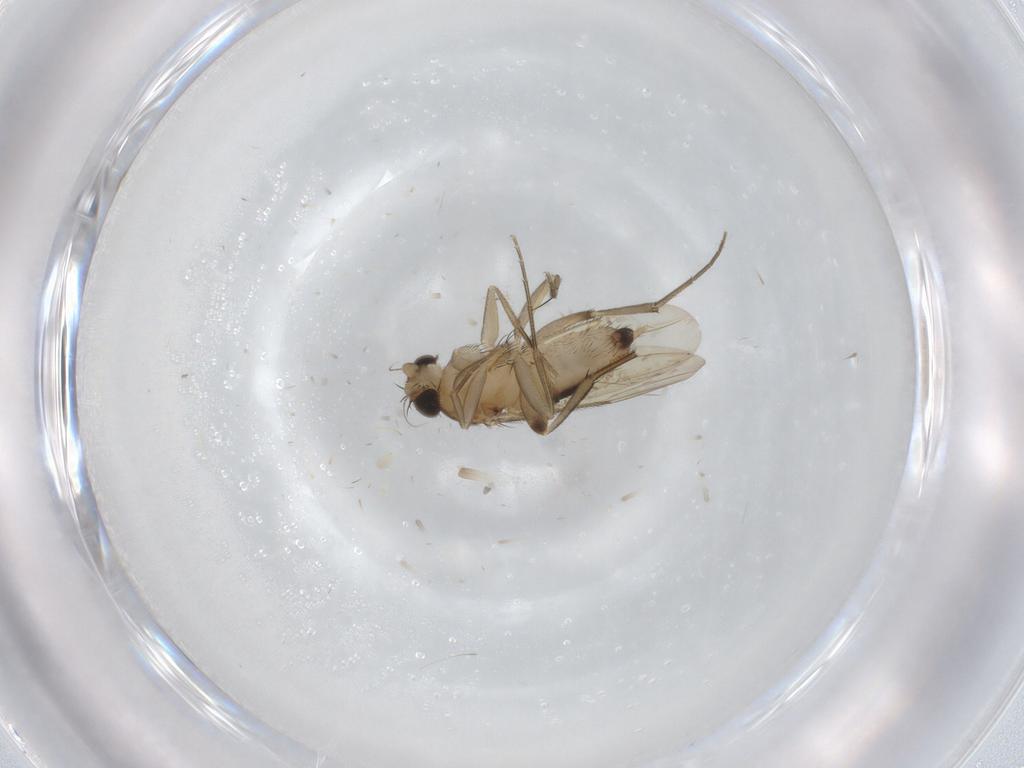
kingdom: Animalia
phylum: Arthropoda
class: Insecta
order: Diptera
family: Phoridae
